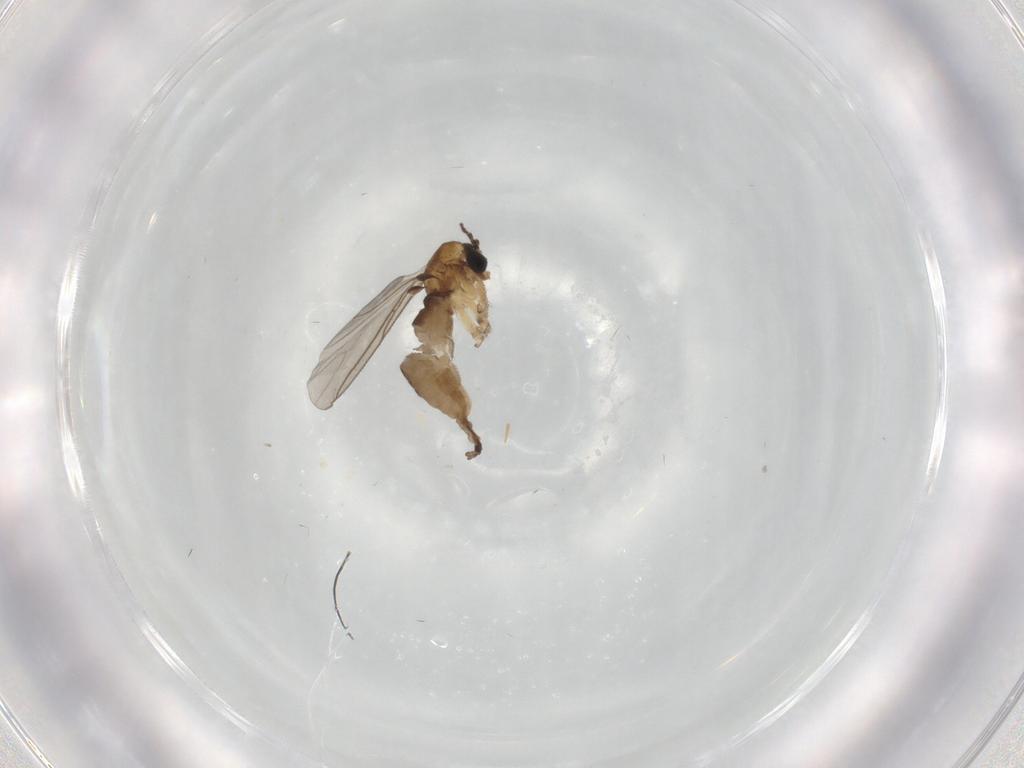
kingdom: Animalia
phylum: Arthropoda
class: Insecta
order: Diptera
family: Sciaridae
